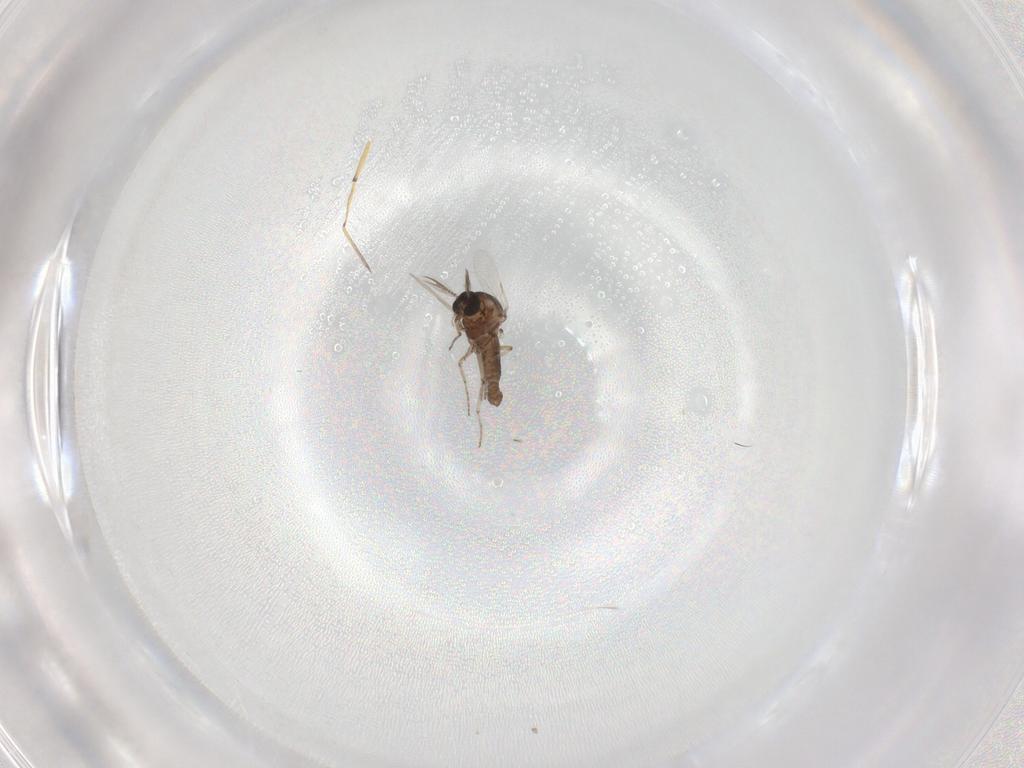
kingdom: Animalia
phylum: Arthropoda
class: Insecta
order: Diptera
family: Ceratopogonidae
